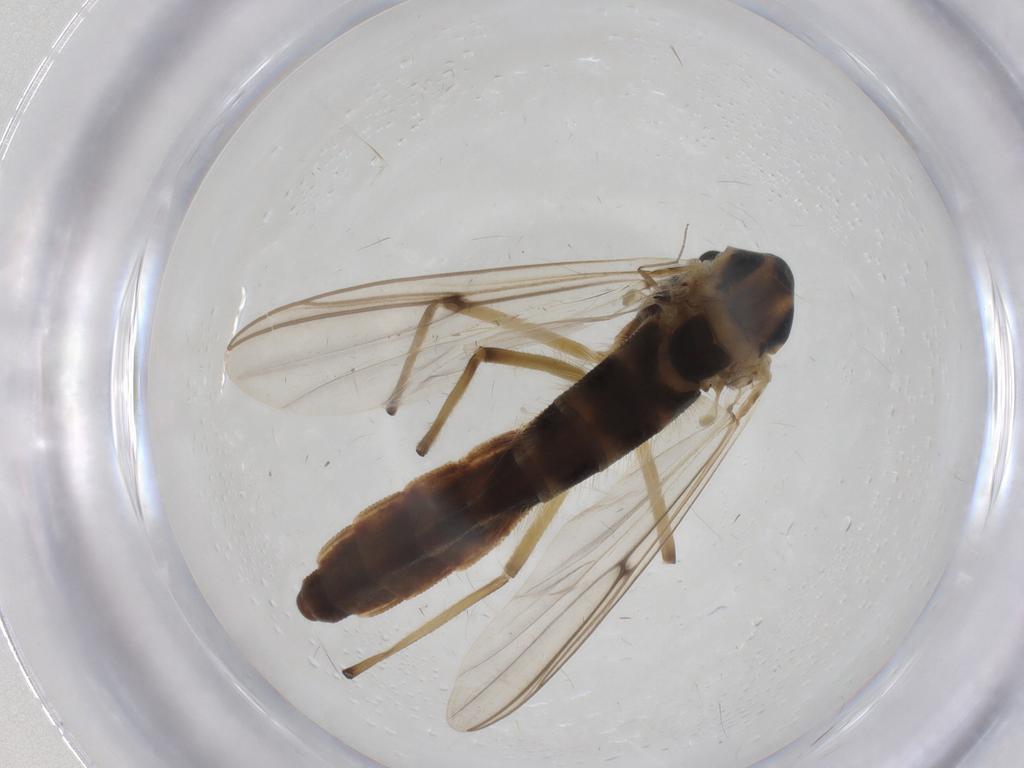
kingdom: Animalia
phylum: Arthropoda
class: Insecta
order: Diptera
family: Chironomidae
